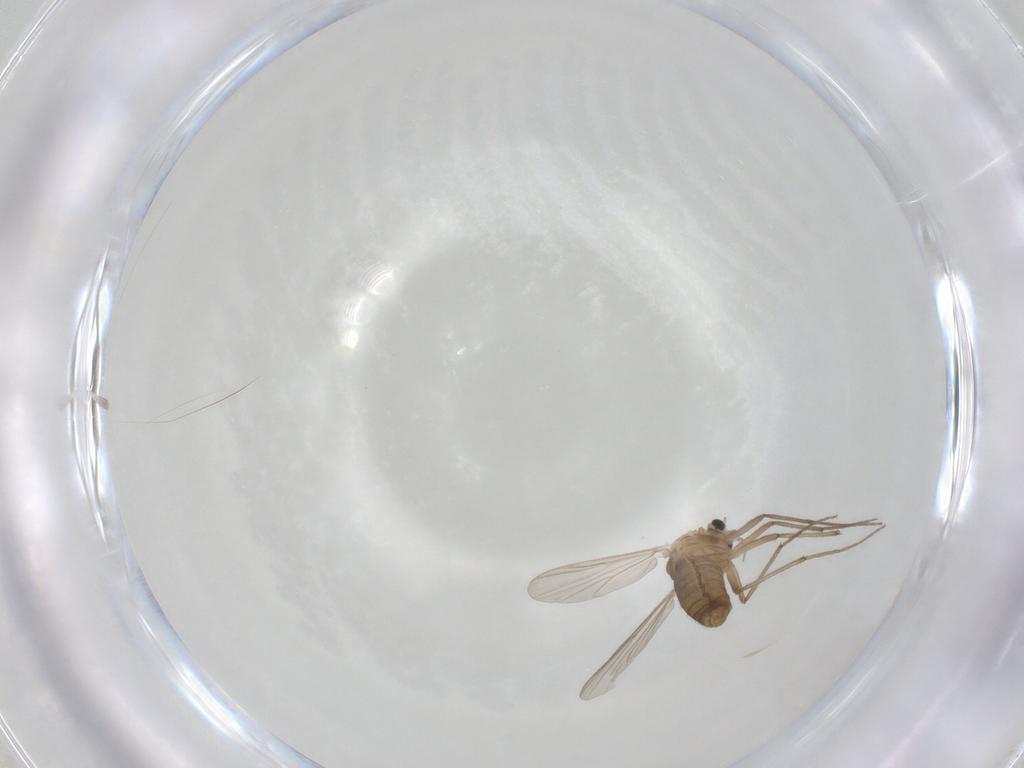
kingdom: Animalia
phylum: Arthropoda
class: Insecta
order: Diptera
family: Chironomidae
